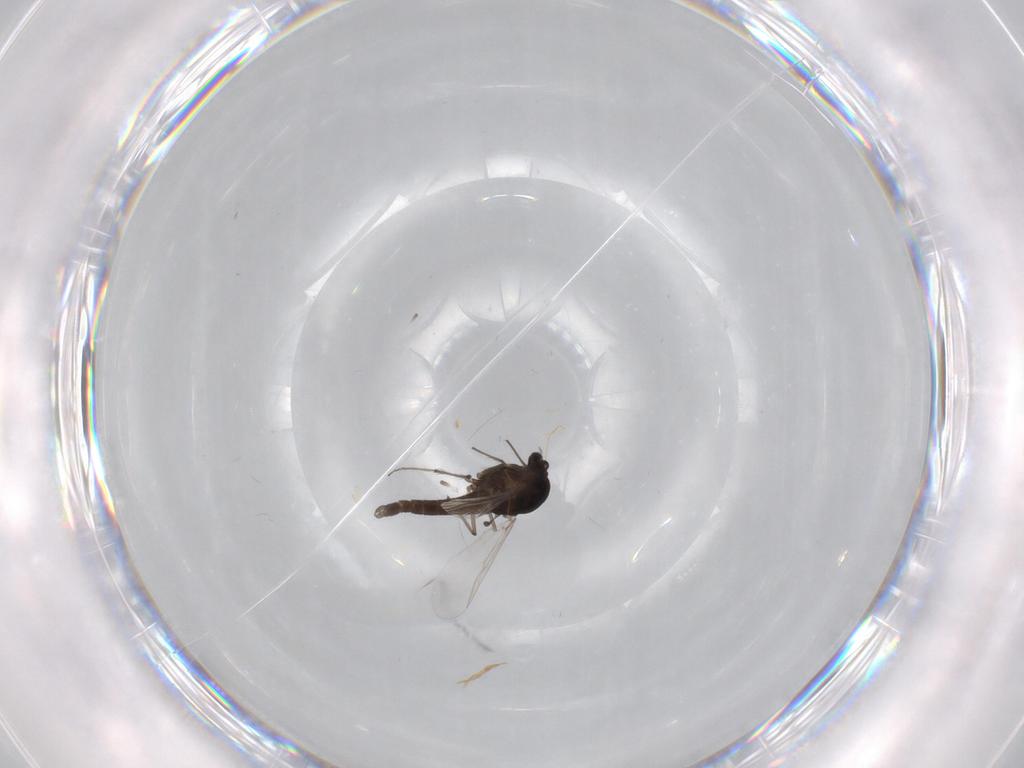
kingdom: Animalia
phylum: Arthropoda
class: Insecta
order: Diptera
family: Chironomidae
